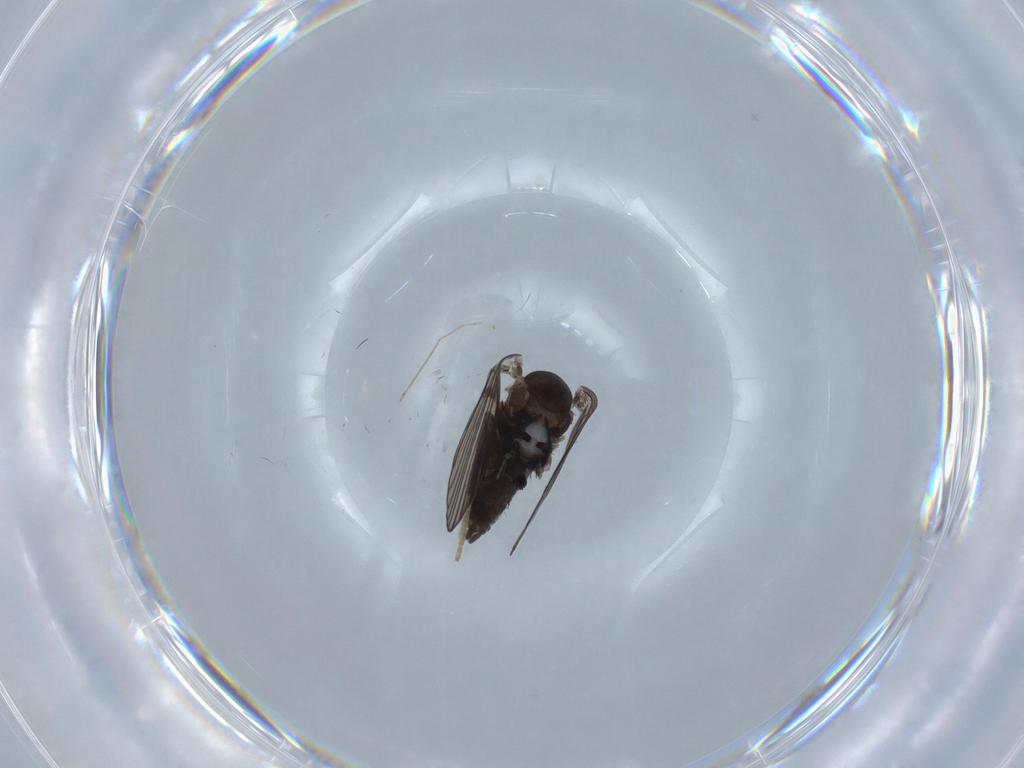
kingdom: Animalia
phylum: Arthropoda
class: Insecta
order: Diptera
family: Psychodidae
